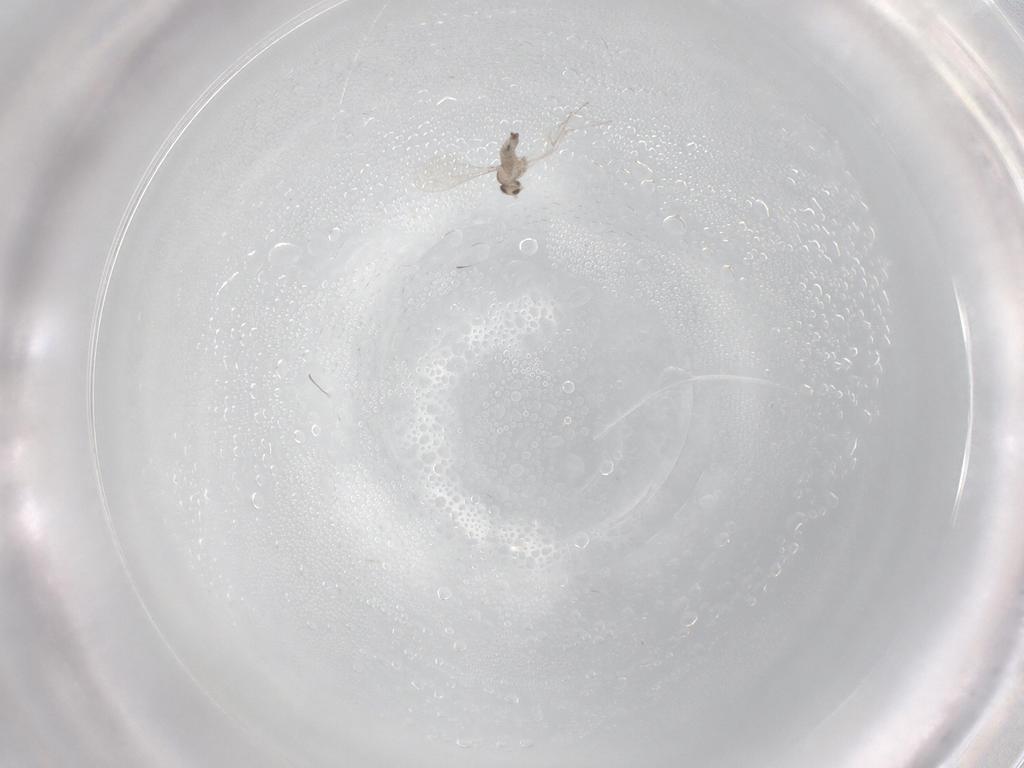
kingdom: Animalia
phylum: Arthropoda
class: Insecta
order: Diptera
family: Cecidomyiidae
